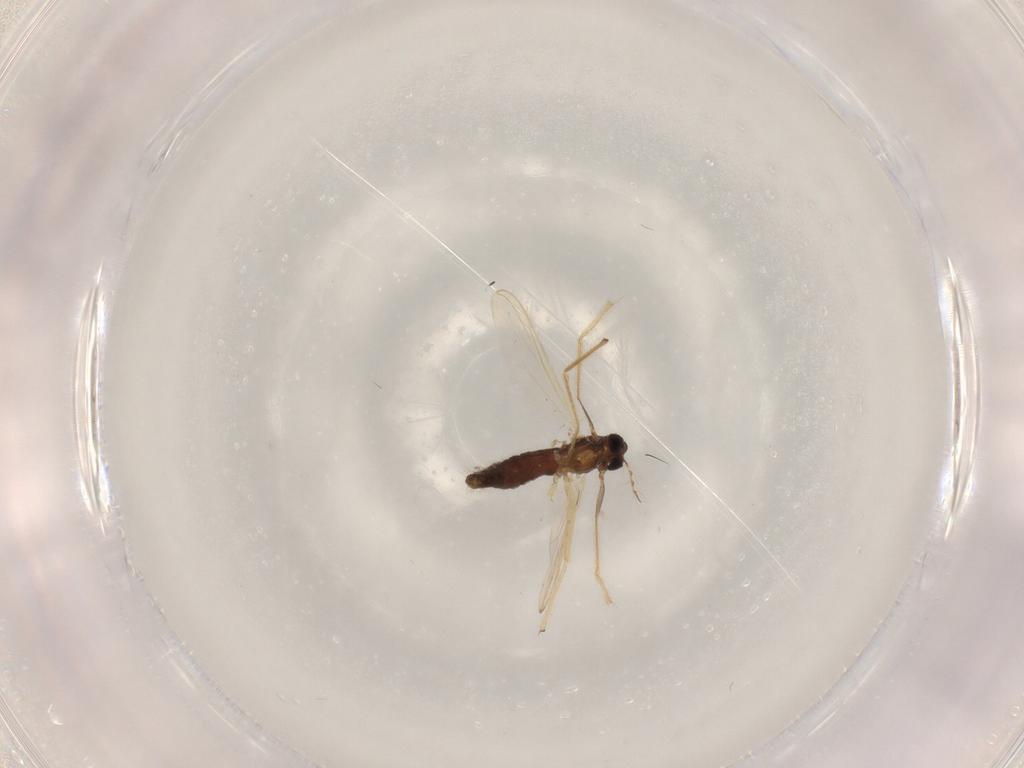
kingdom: Animalia
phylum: Arthropoda
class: Insecta
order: Diptera
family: Chironomidae
